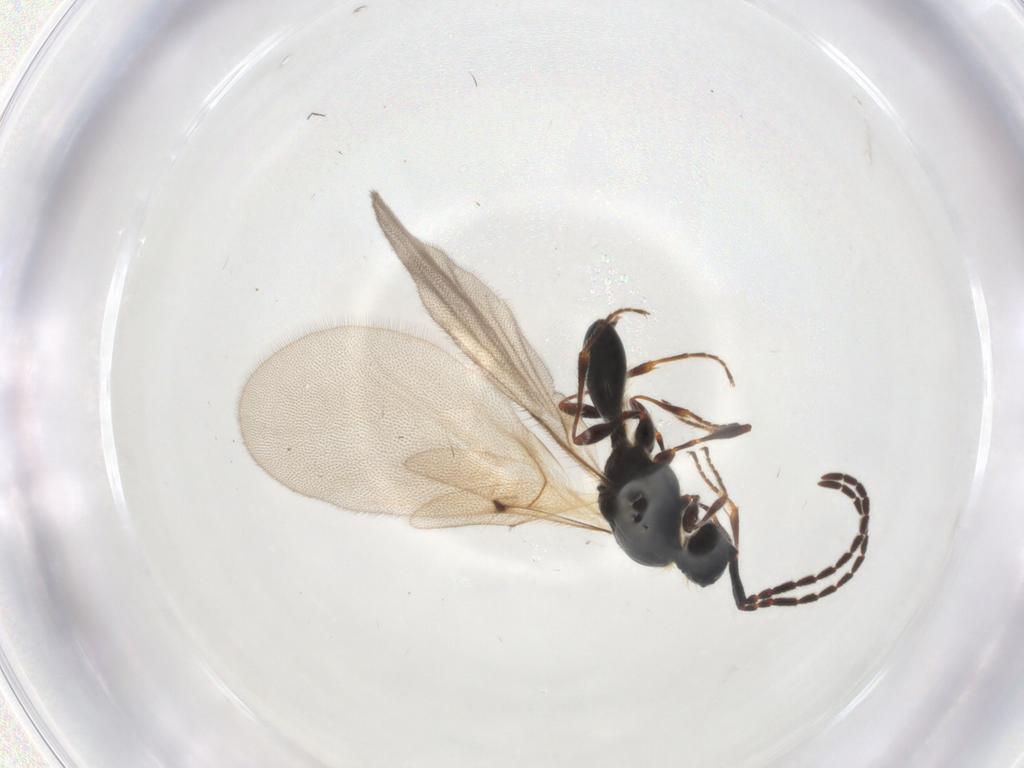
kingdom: Animalia
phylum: Arthropoda
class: Insecta
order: Hymenoptera
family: Diapriidae
